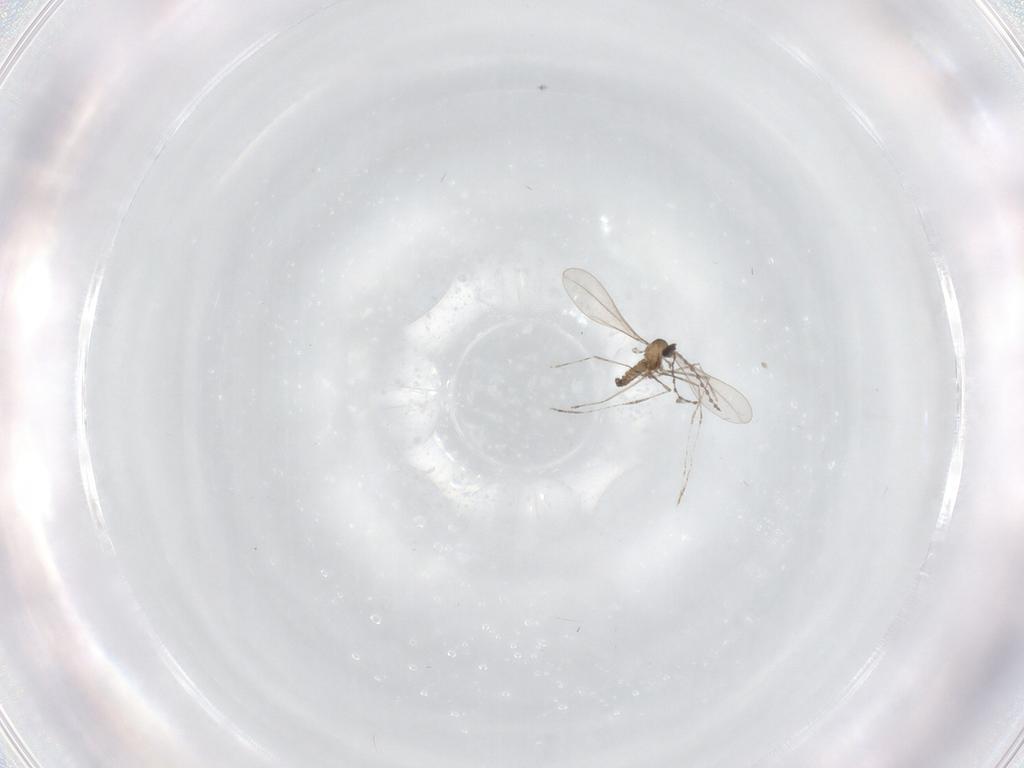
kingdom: Animalia
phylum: Arthropoda
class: Insecta
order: Diptera
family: Cecidomyiidae
